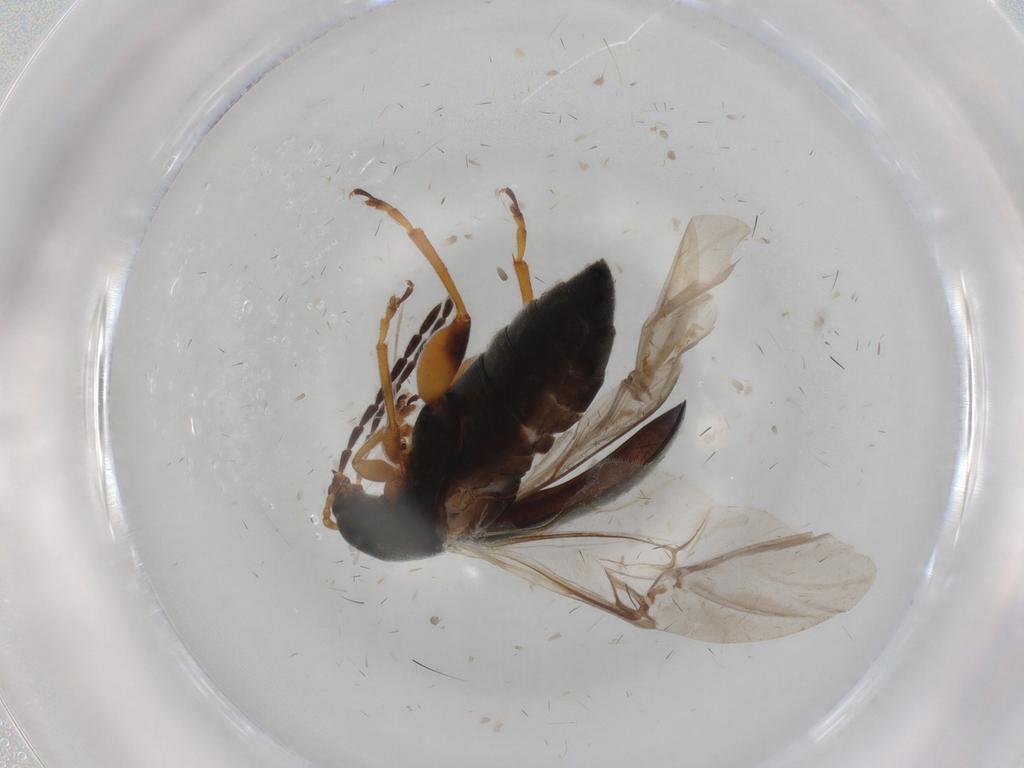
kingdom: Animalia
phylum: Arthropoda
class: Insecta
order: Coleoptera
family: Chrysomelidae
